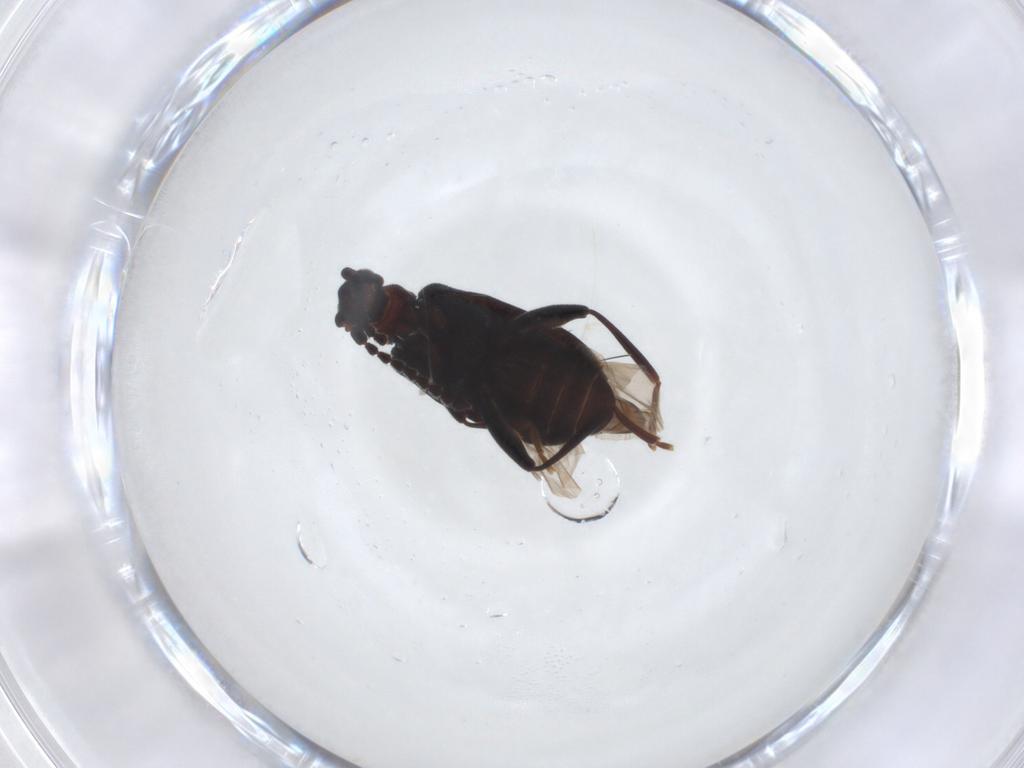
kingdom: Animalia
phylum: Arthropoda
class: Insecta
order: Coleoptera
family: Aderidae
